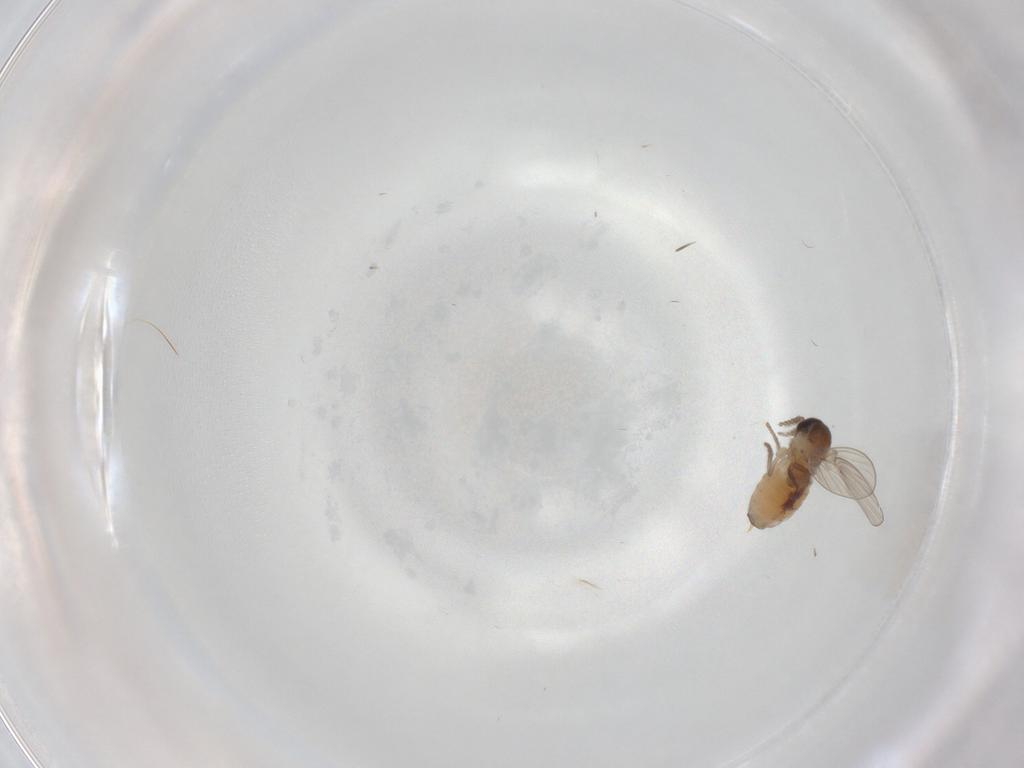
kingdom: Animalia
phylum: Arthropoda
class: Insecta
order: Diptera
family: Psychodidae
